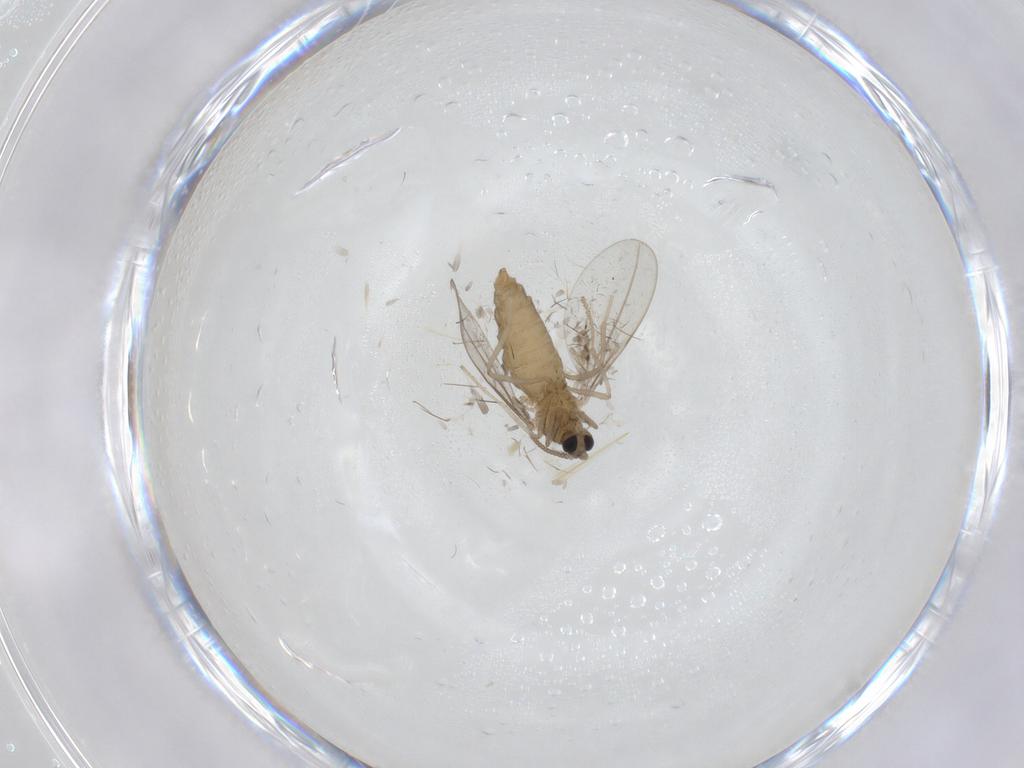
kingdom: Animalia
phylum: Arthropoda
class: Insecta
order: Diptera
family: Cecidomyiidae
